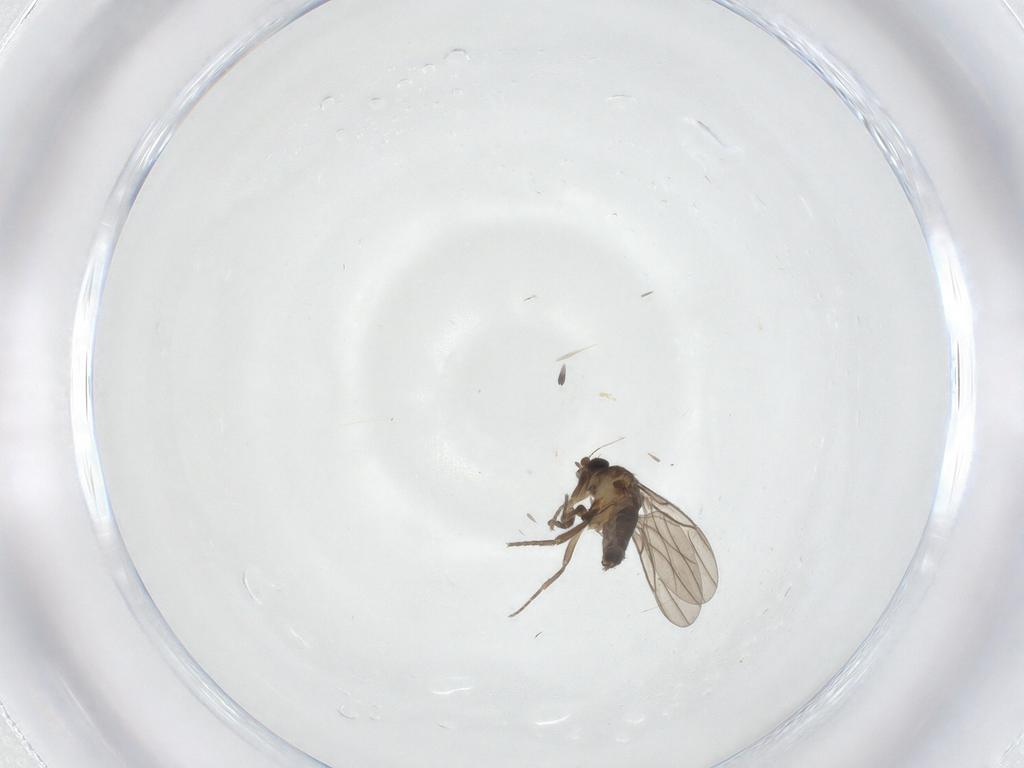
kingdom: Animalia
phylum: Arthropoda
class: Insecta
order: Diptera
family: Phoridae
